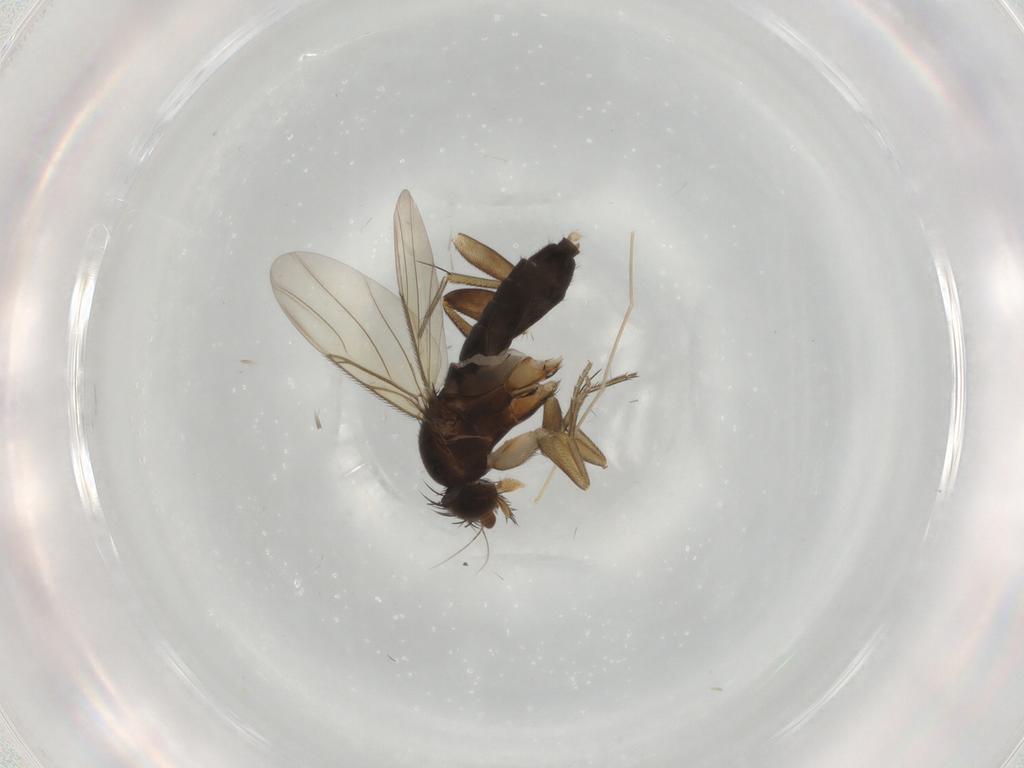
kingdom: Animalia
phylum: Arthropoda
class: Insecta
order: Diptera
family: Phoridae
